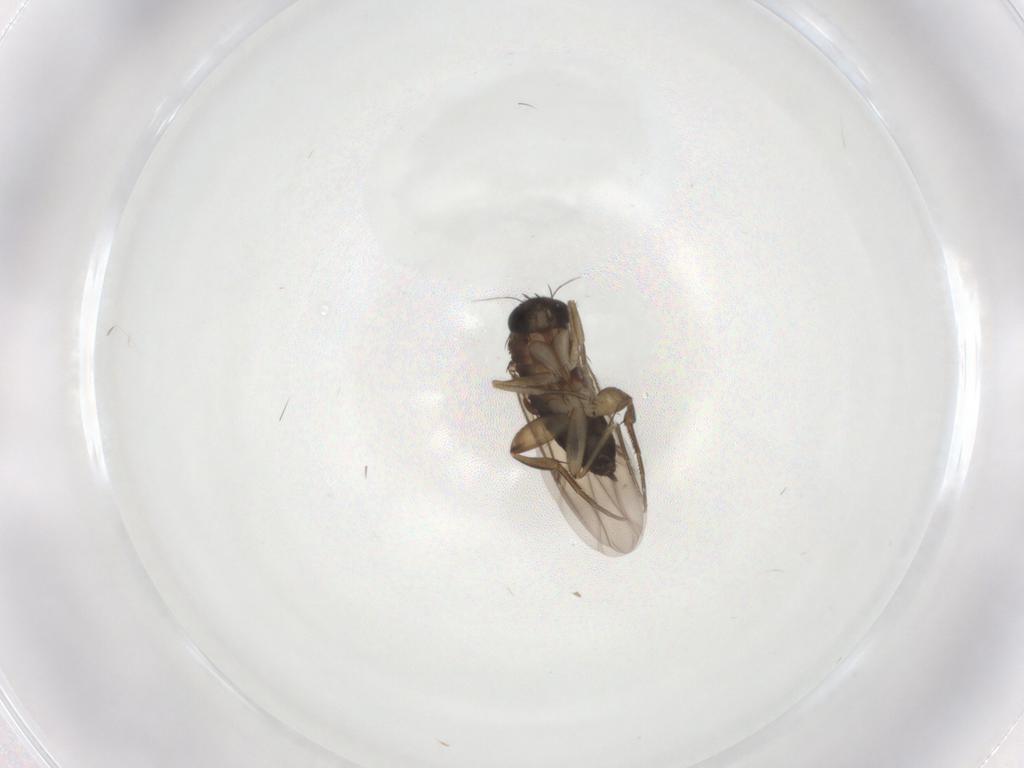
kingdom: Animalia
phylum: Arthropoda
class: Insecta
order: Diptera
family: Phoridae
